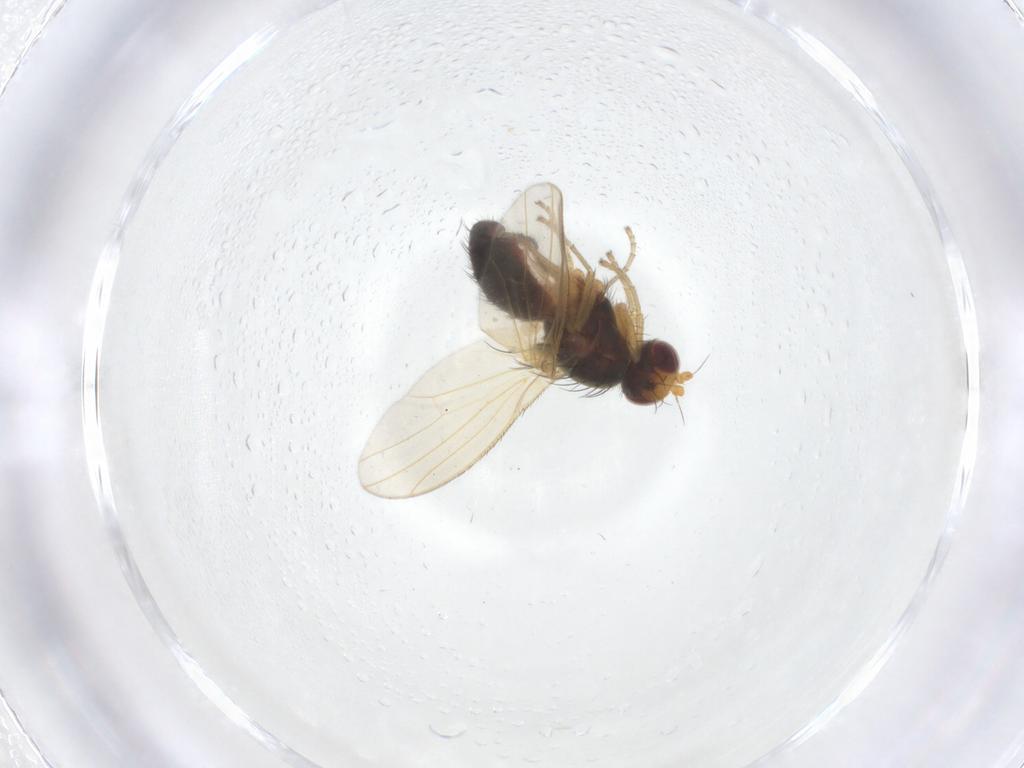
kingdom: Animalia
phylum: Arthropoda
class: Insecta
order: Diptera
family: Heleomyzidae
